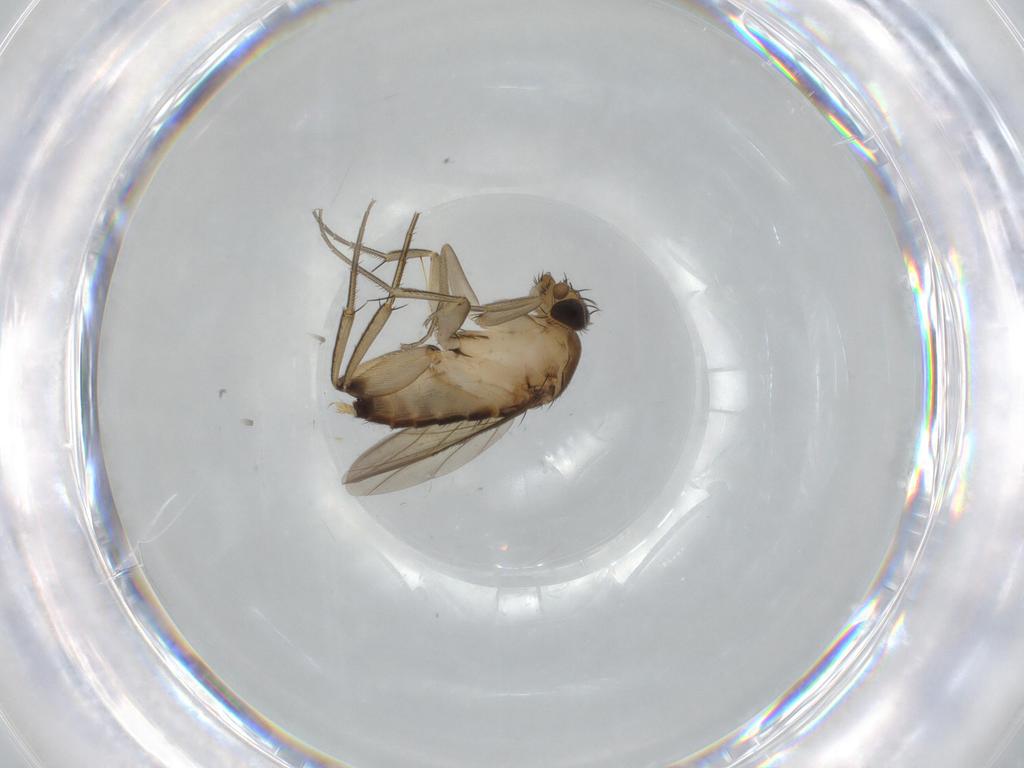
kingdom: Animalia
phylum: Arthropoda
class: Insecta
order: Diptera
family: Phoridae
